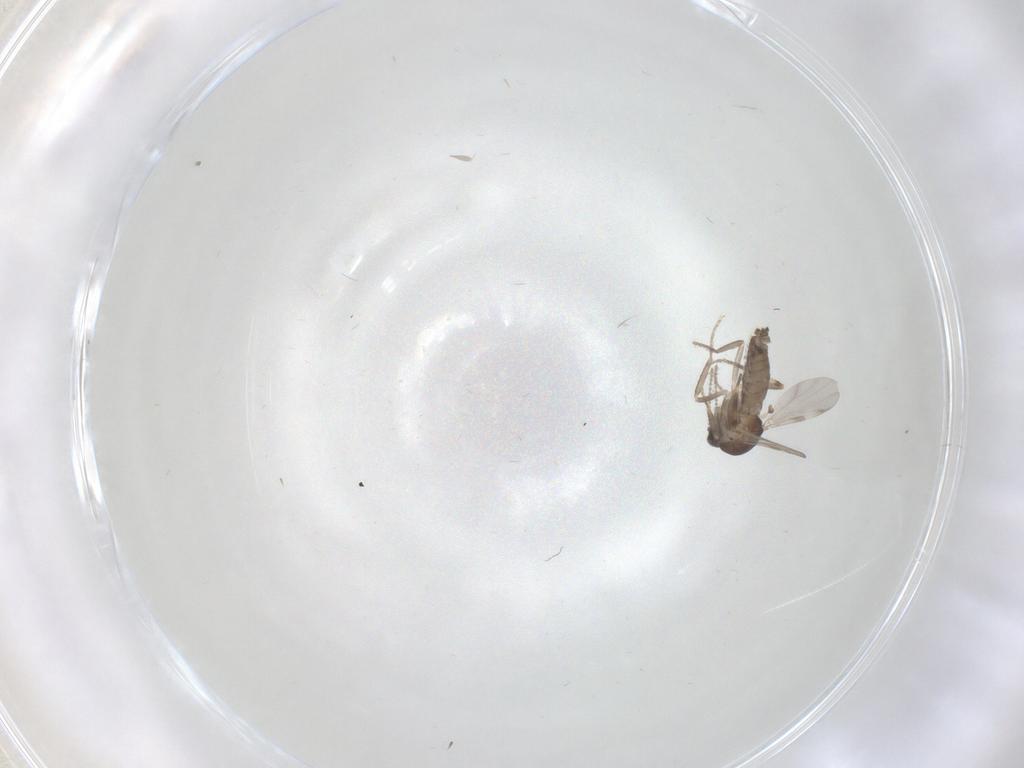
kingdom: Animalia
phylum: Arthropoda
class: Insecta
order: Diptera
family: Ceratopogonidae
